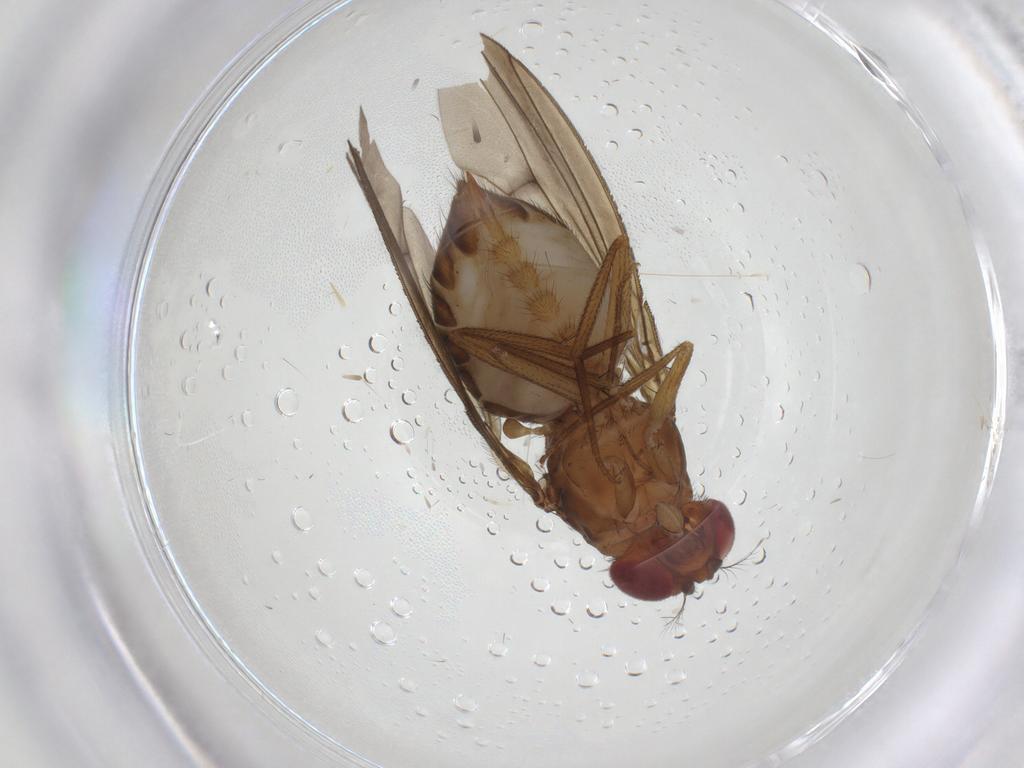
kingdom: Animalia
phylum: Arthropoda
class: Insecta
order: Diptera
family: Drosophilidae
